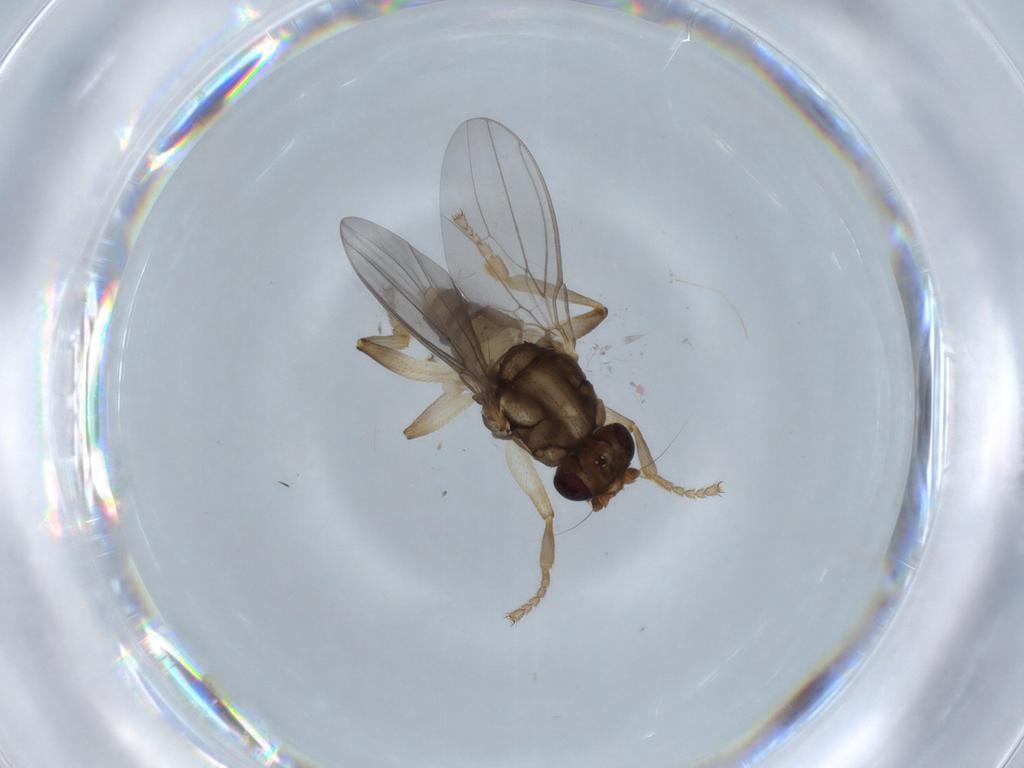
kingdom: Animalia
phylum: Arthropoda
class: Insecta
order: Diptera
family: Sphaeroceridae
